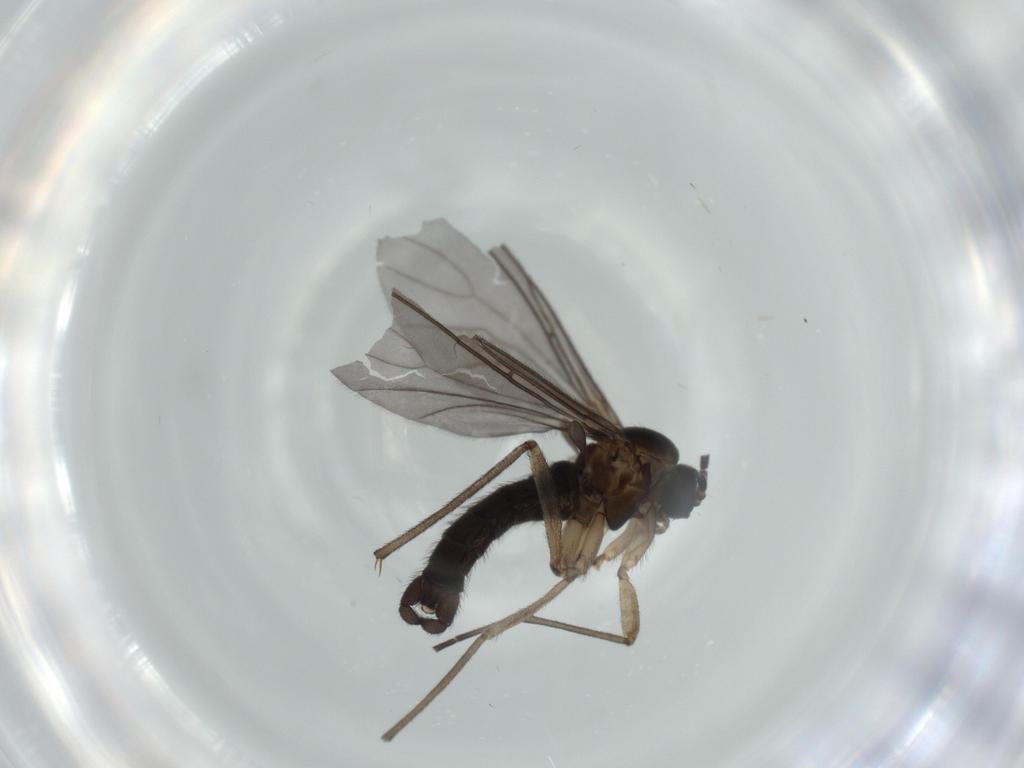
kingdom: Animalia
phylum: Arthropoda
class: Insecta
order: Diptera
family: Sciaridae
